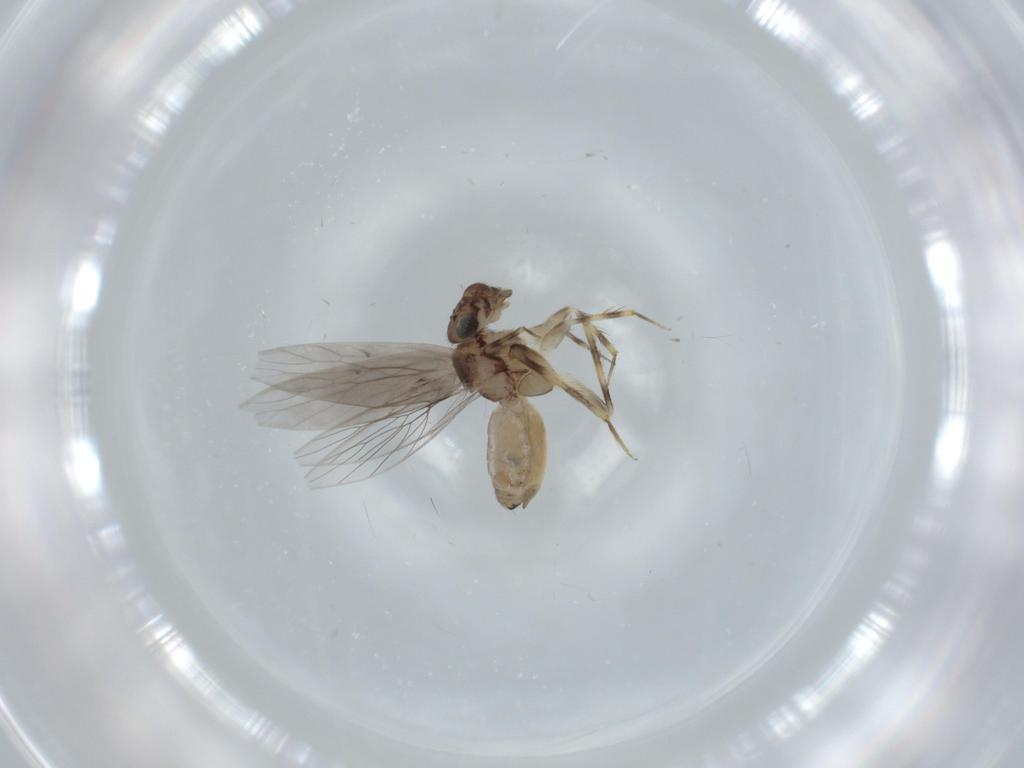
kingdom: Animalia
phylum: Arthropoda
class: Insecta
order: Psocodea
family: Lepidopsocidae
